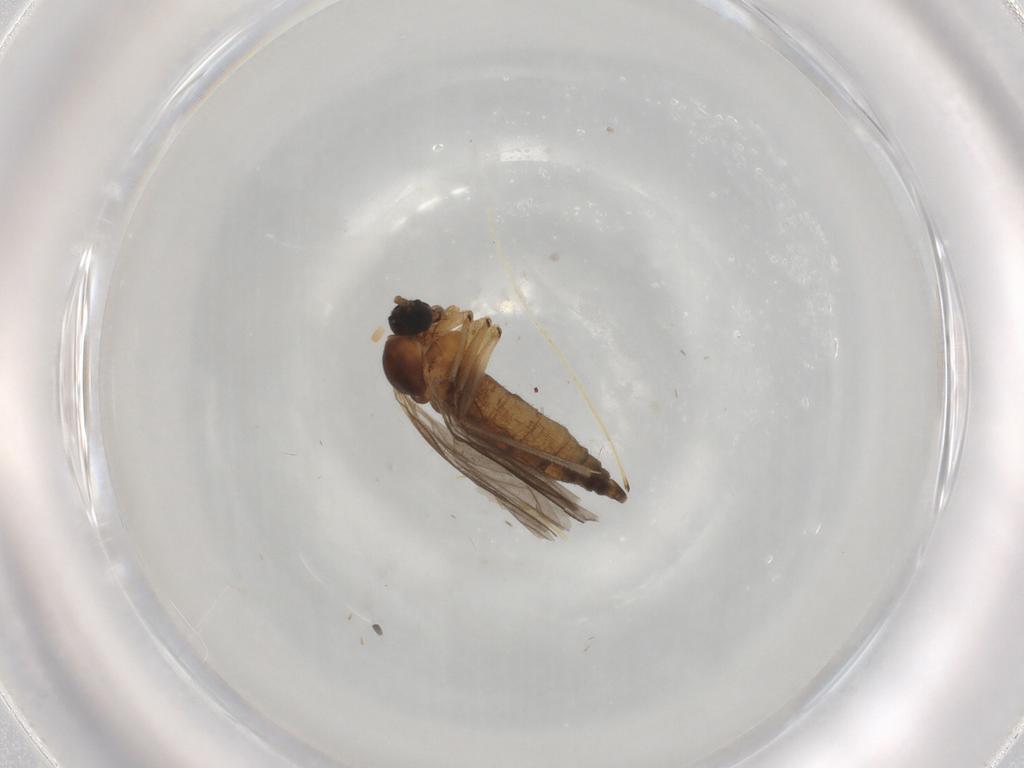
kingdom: Animalia
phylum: Arthropoda
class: Insecta
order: Diptera
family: Sciaridae
